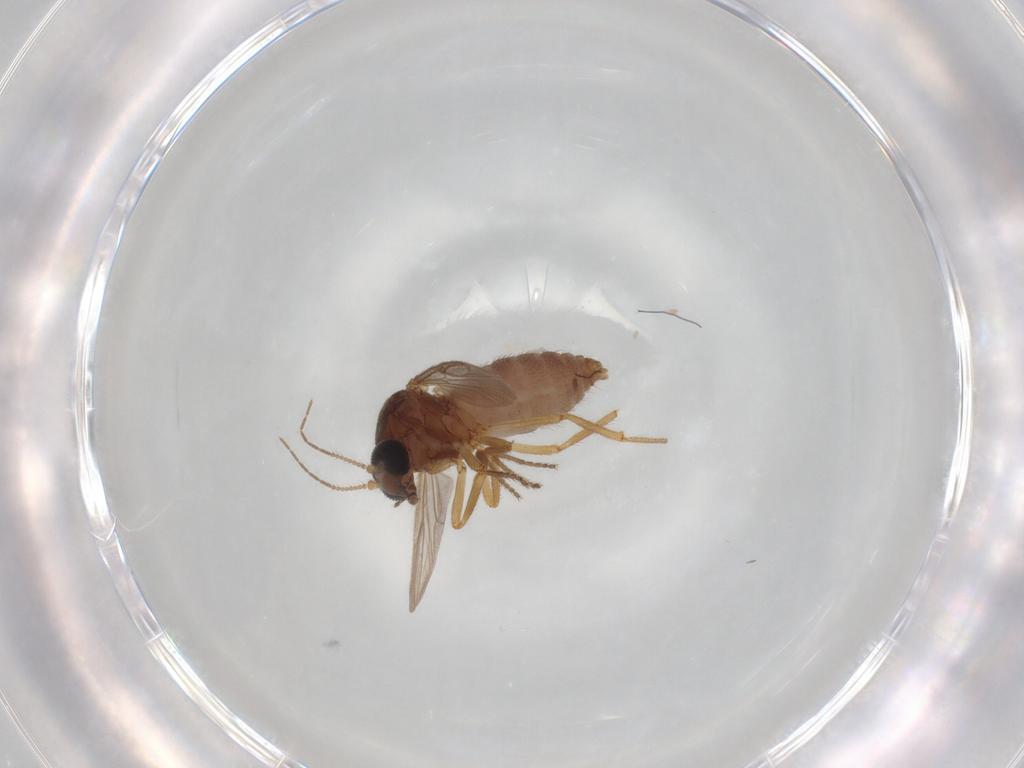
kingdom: Animalia
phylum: Arthropoda
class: Insecta
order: Diptera
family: Ceratopogonidae
